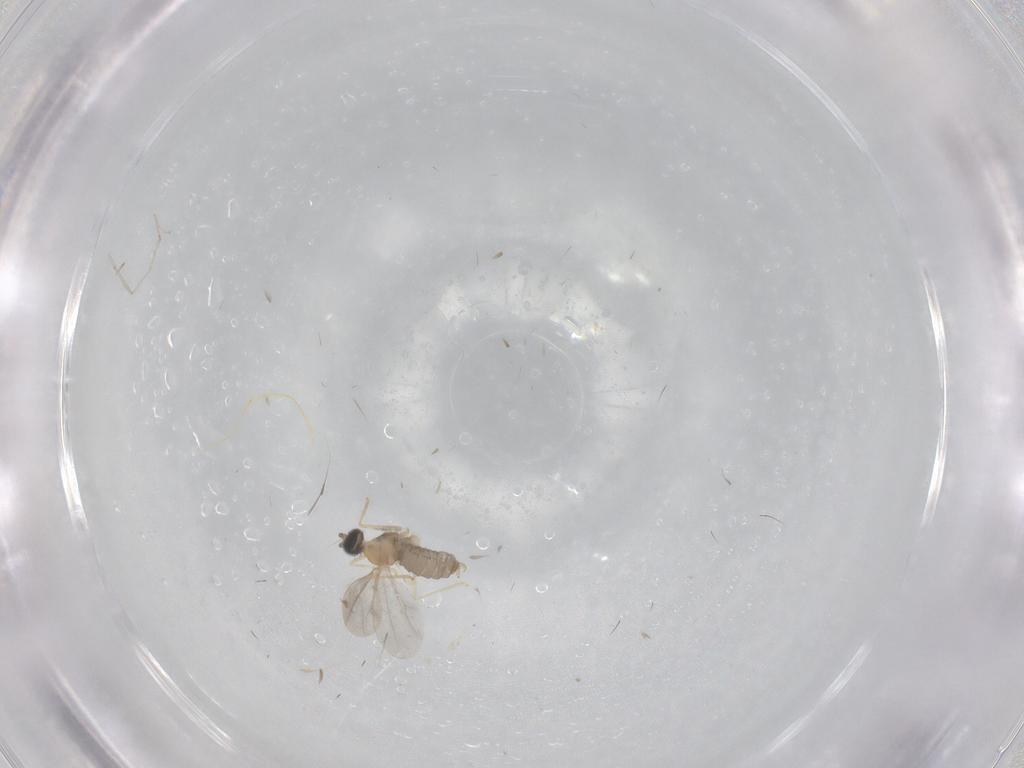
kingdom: Animalia
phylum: Arthropoda
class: Insecta
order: Diptera
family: Cecidomyiidae
